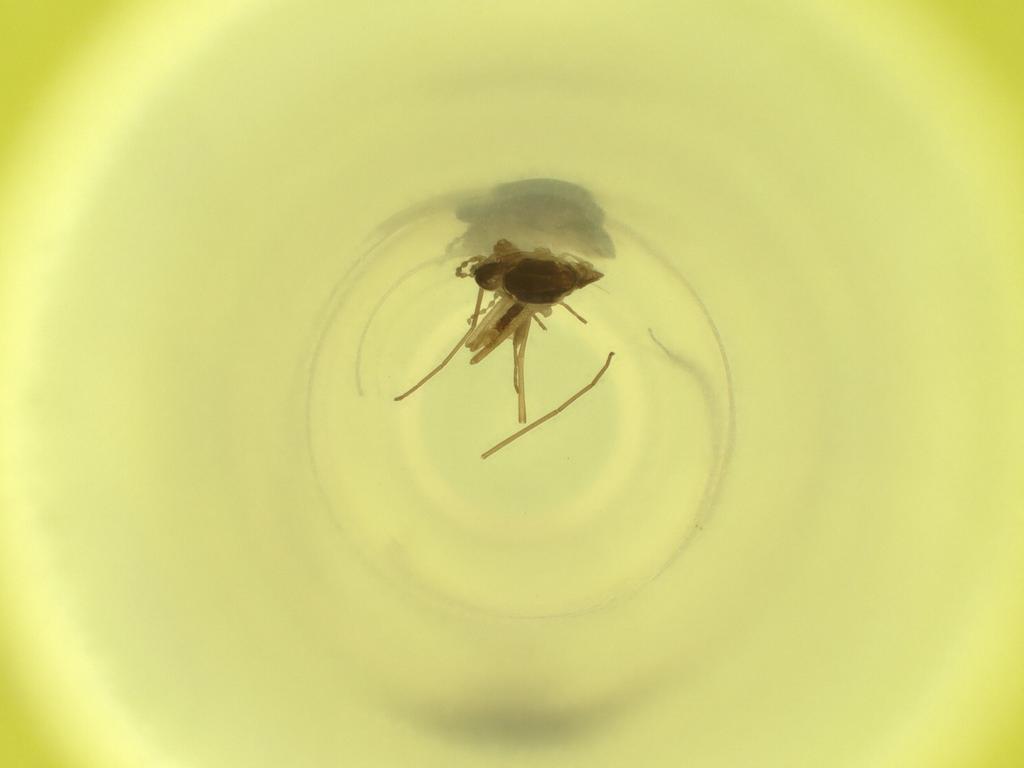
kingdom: Animalia
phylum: Arthropoda
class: Insecta
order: Diptera
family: Cecidomyiidae
